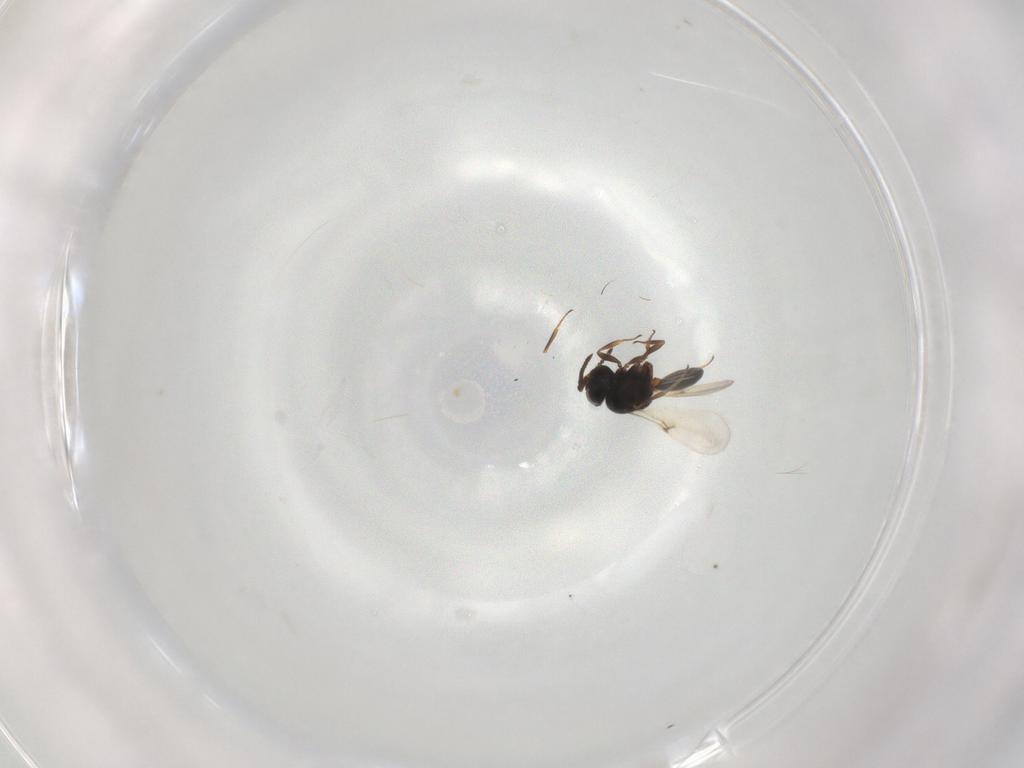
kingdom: Animalia
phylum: Arthropoda
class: Insecta
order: Hymenoptera
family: Scelionidae
